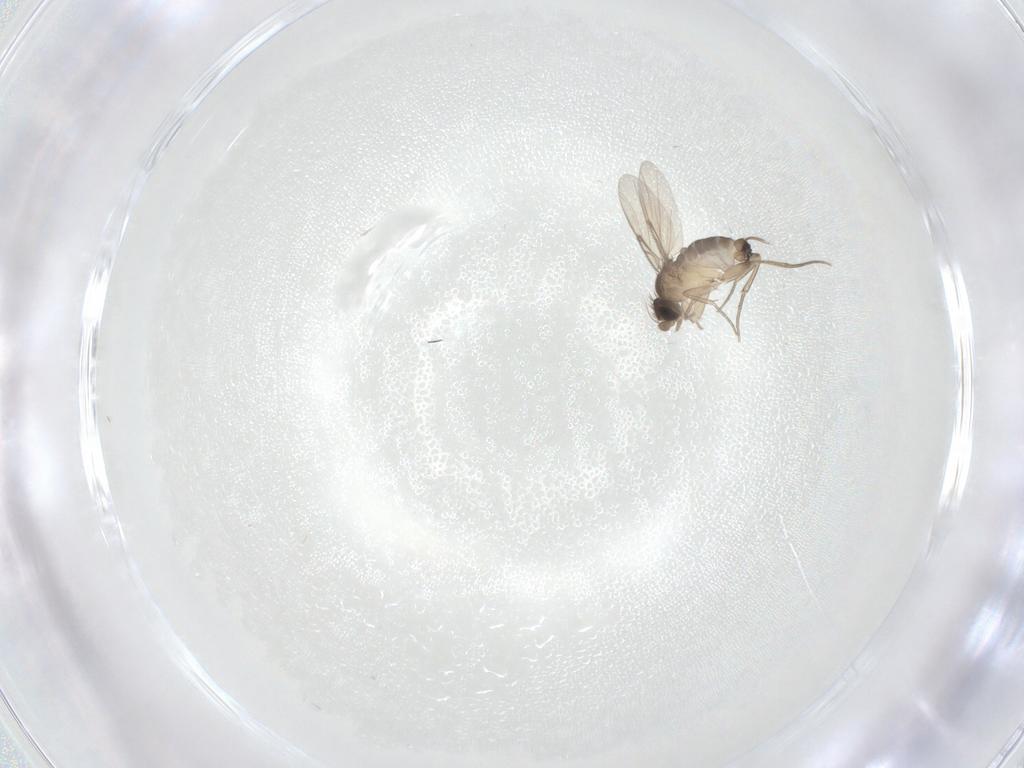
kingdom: Animalia
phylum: Arthropoda
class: Insecta
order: Diptera
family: Phoridae
